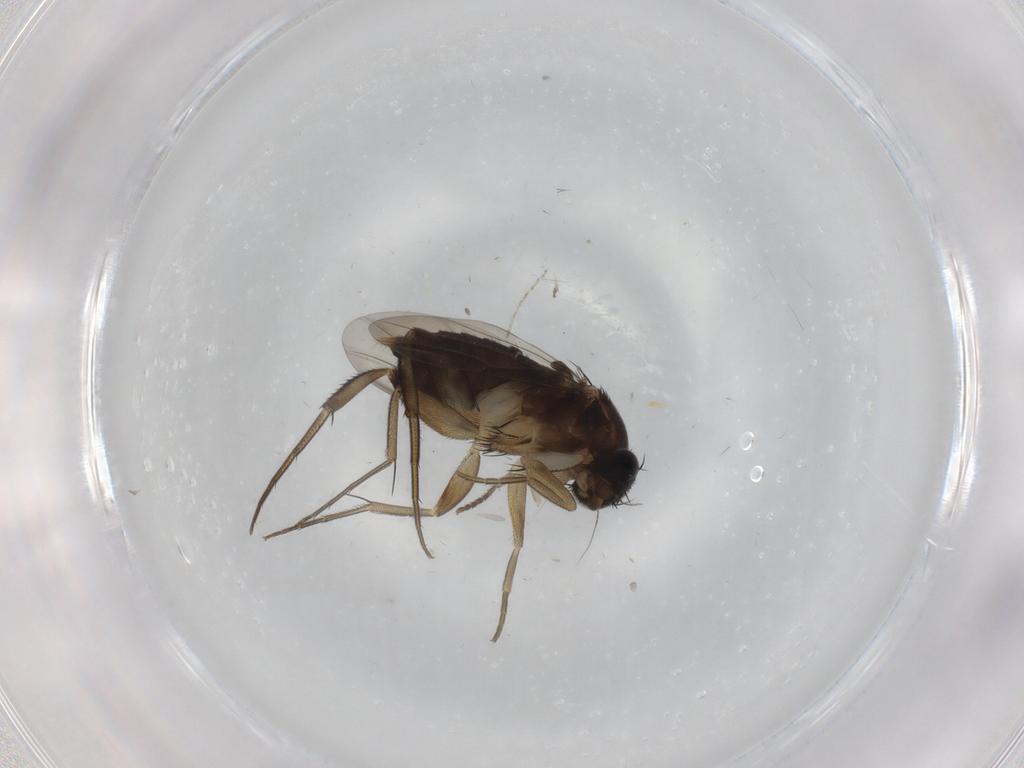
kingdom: Animalia
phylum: Arthropoda
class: Insecta
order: Diptera
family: Phoridae
